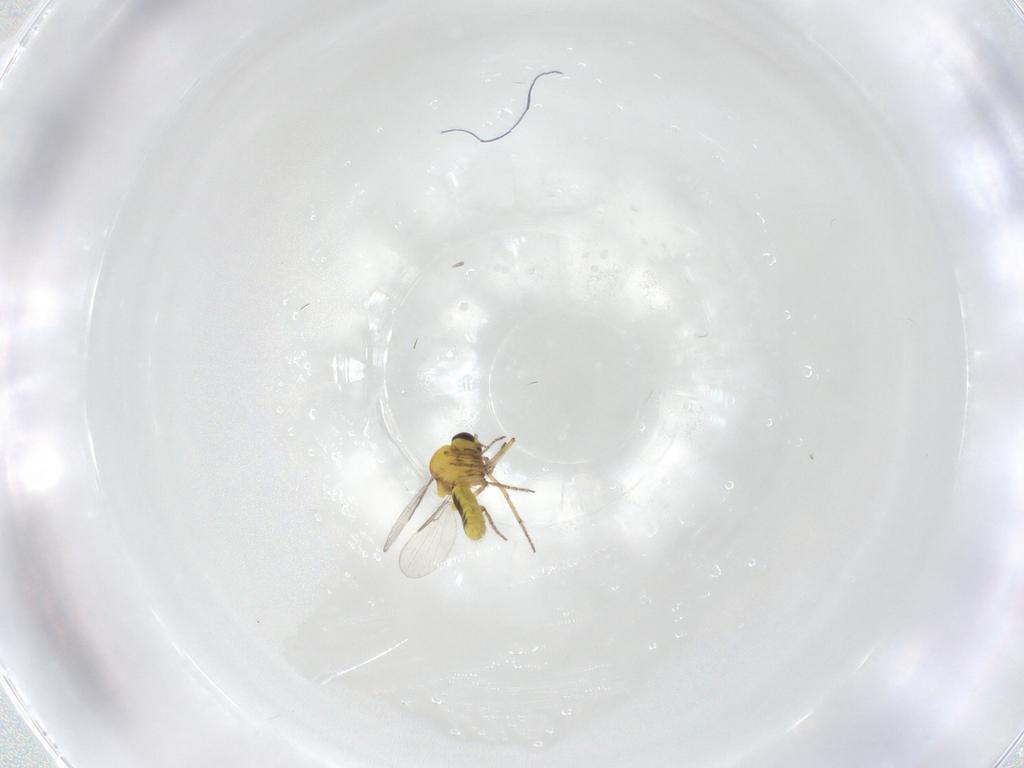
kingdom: Animalia
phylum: Arthropoda
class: Insecta
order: Diptera
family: Ceratopogonidae
